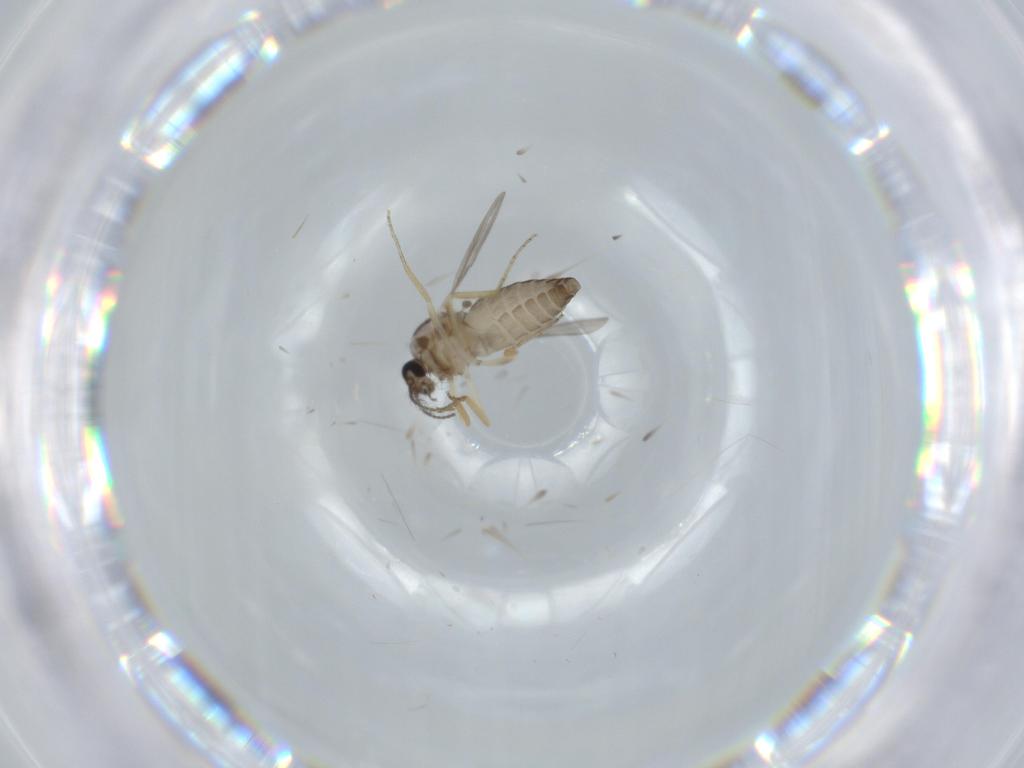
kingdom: Animalia
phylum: Arthropoda
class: Insecta
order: Diptera
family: Ceratopogonidae
